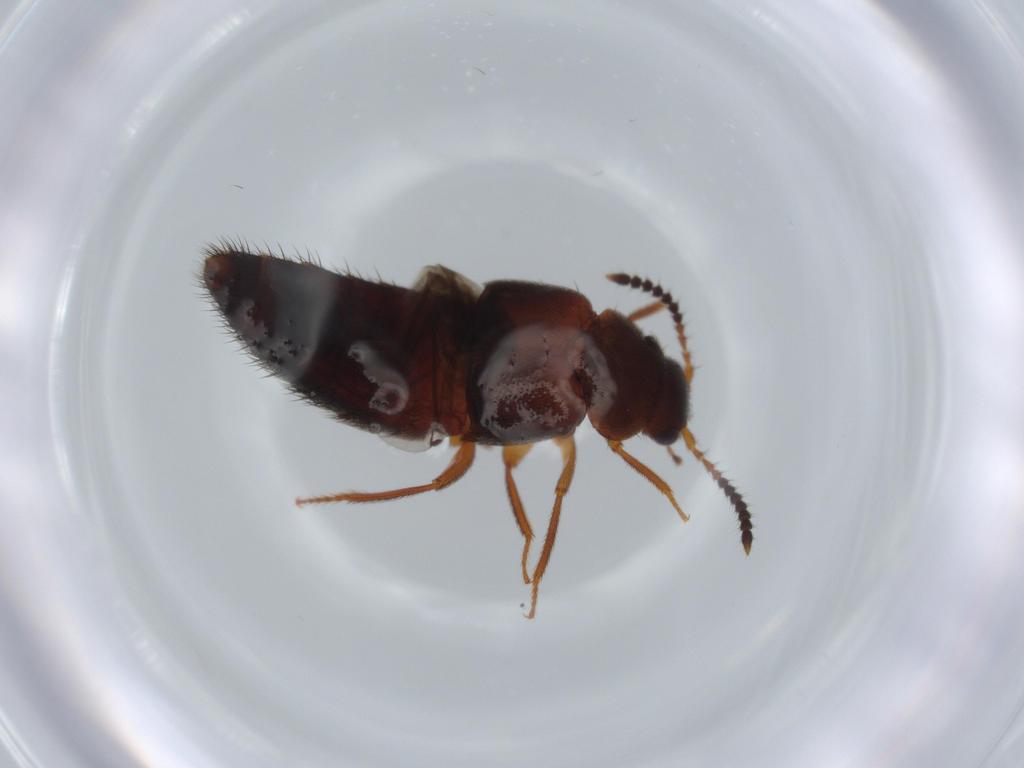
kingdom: Animalia
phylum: Arthropoda
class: Insecta
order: Coleoptera
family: Staphylinidae
